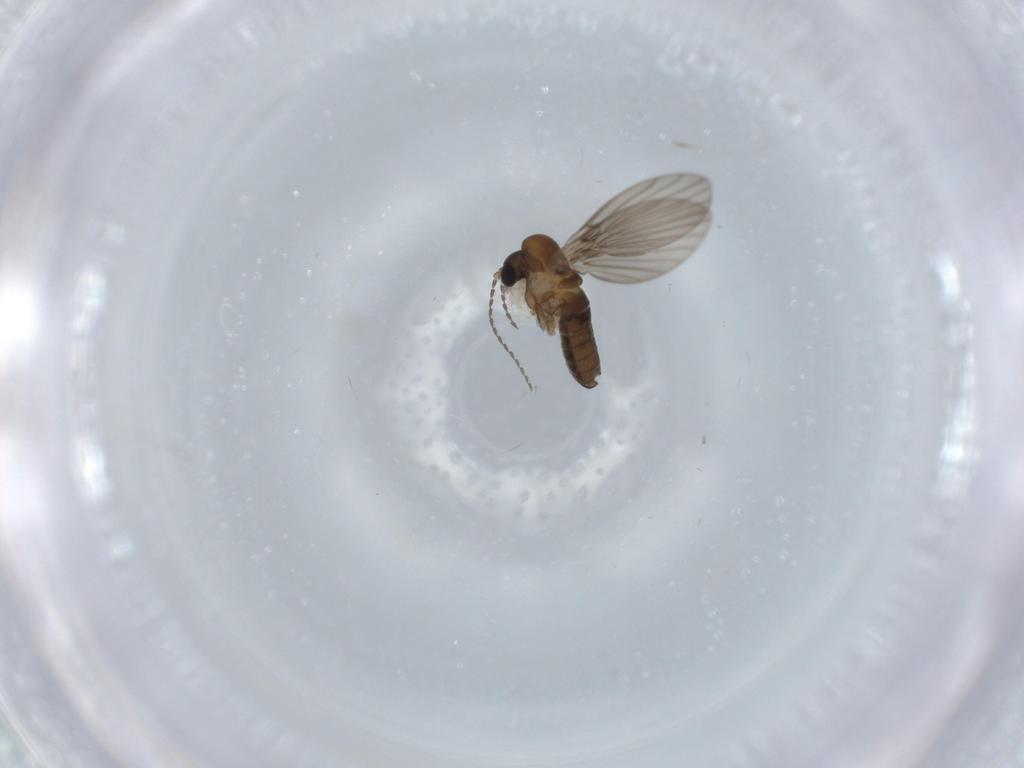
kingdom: Animalia
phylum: Arthropoda
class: Insecta
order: Diptera
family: Psychodidae
